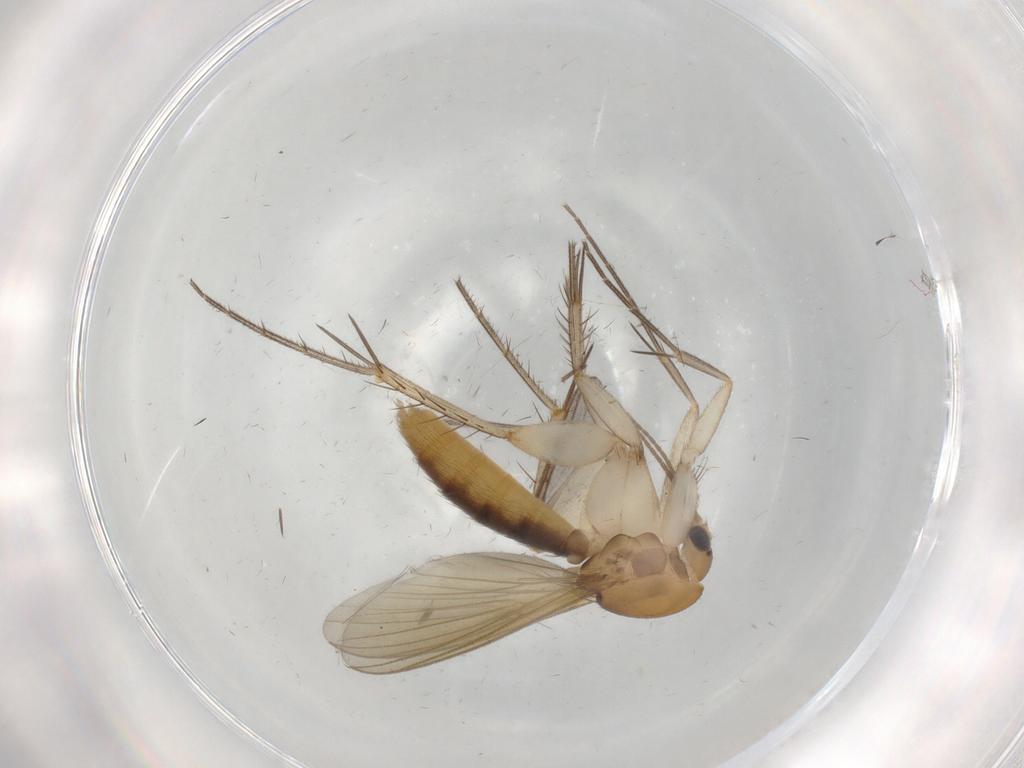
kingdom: Animalia
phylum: Arthropoda
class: Insecta
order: Diptera
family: Mycetophilidae
